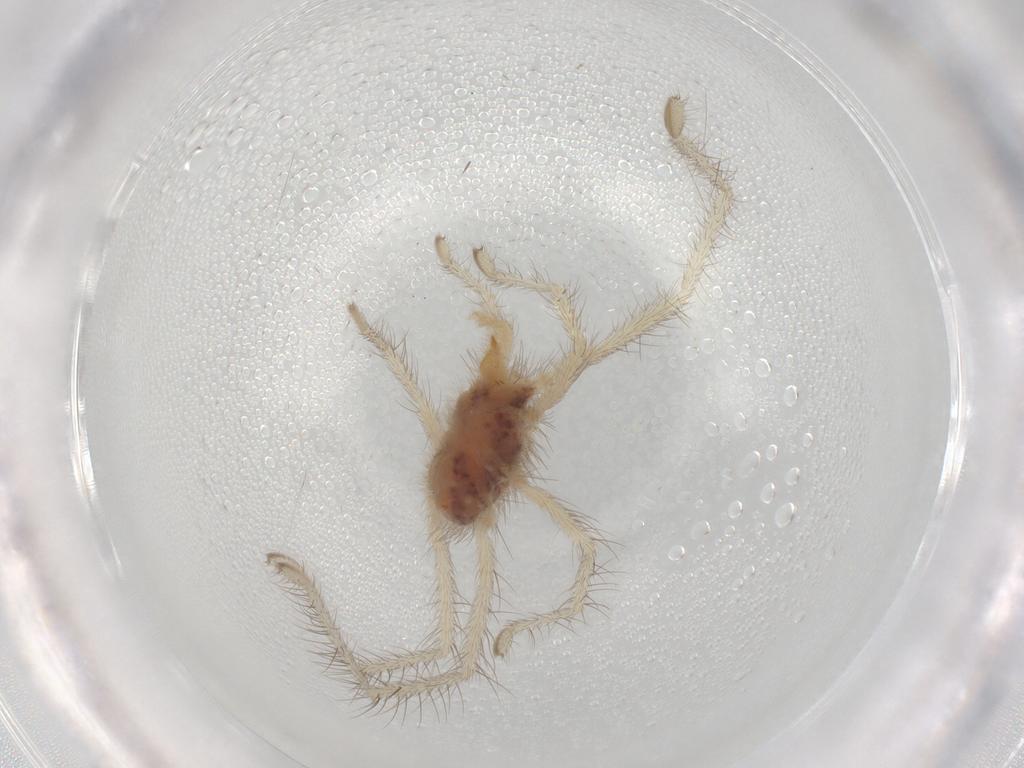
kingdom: Animalia
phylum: Arthropoda
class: Arachnida
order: Trombidiformes
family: Erythraeidae
